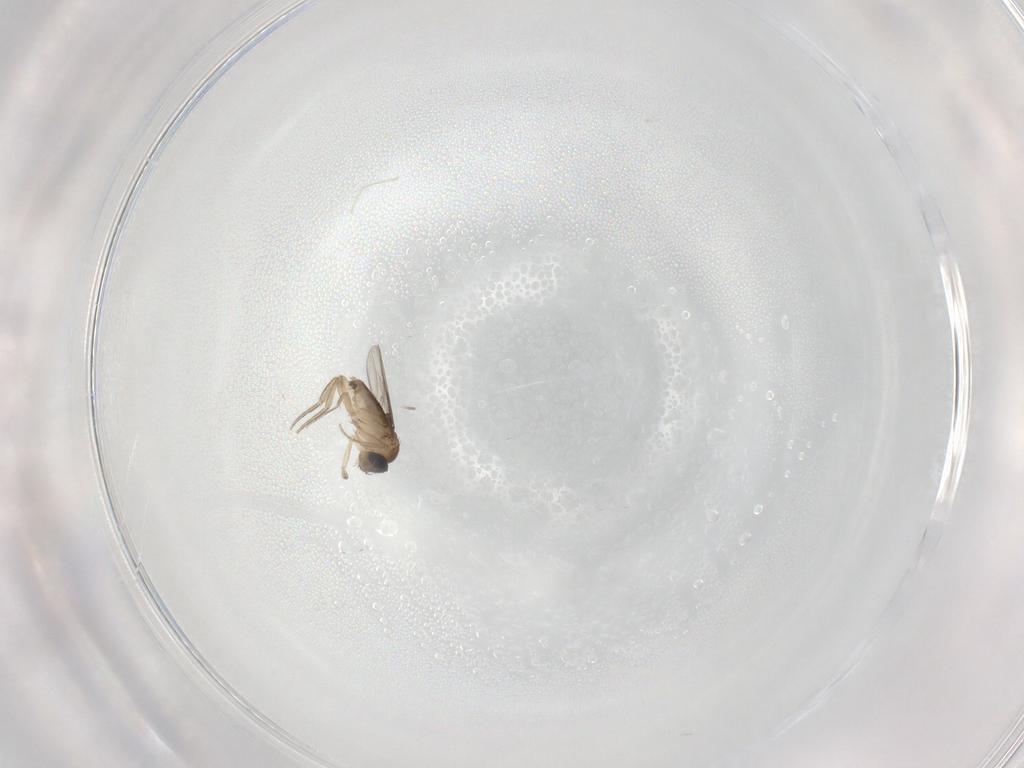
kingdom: Animalia
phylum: Arthropoda
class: Insecta
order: Diptera
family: Phoridae
